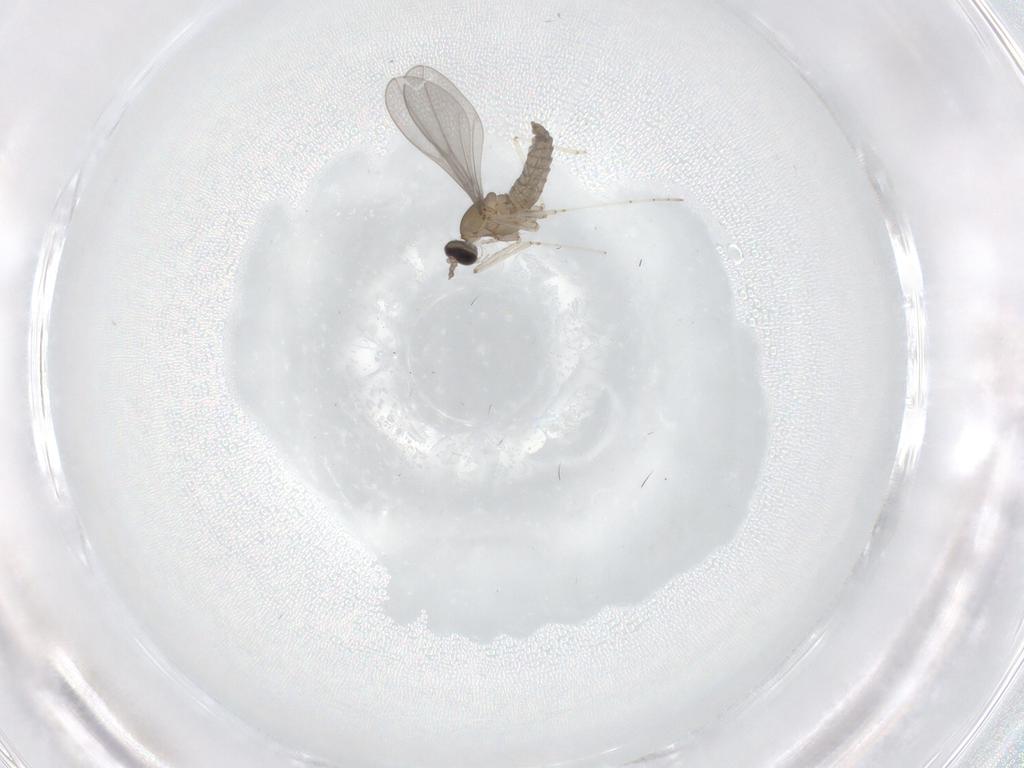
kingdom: Animalia
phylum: Arthropoda
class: Insecta
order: Diptera
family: Cecidomyiidae
